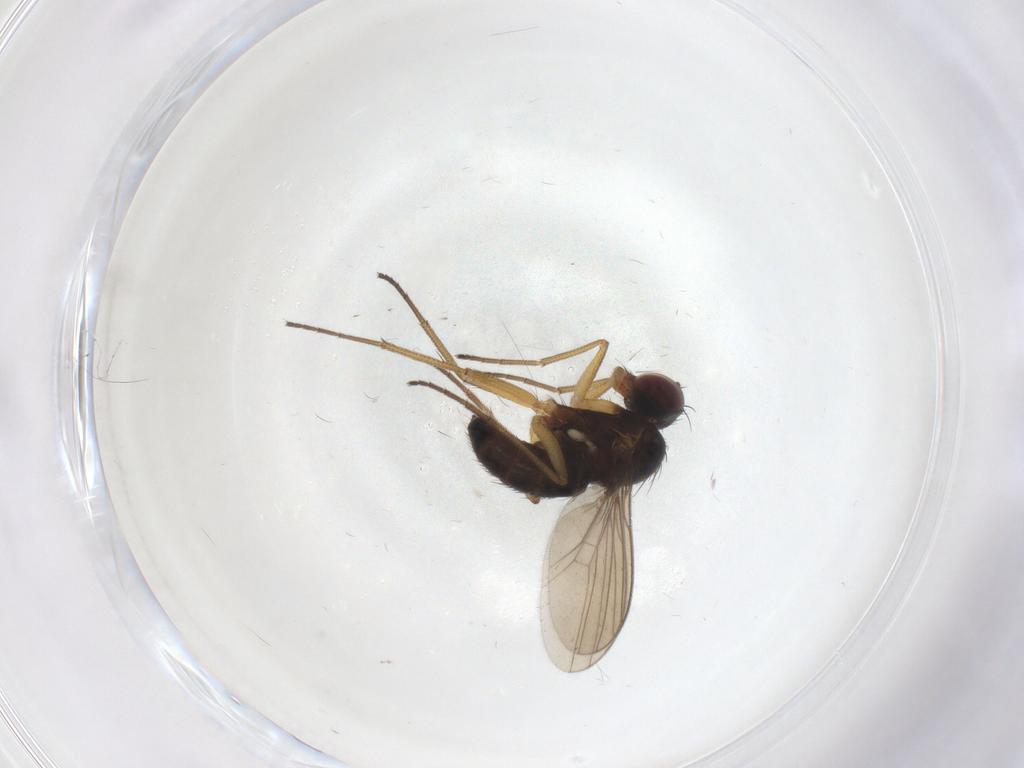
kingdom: Animalia
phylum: Arthropoda
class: Insecta
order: Diptera
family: Dolichopodidae
